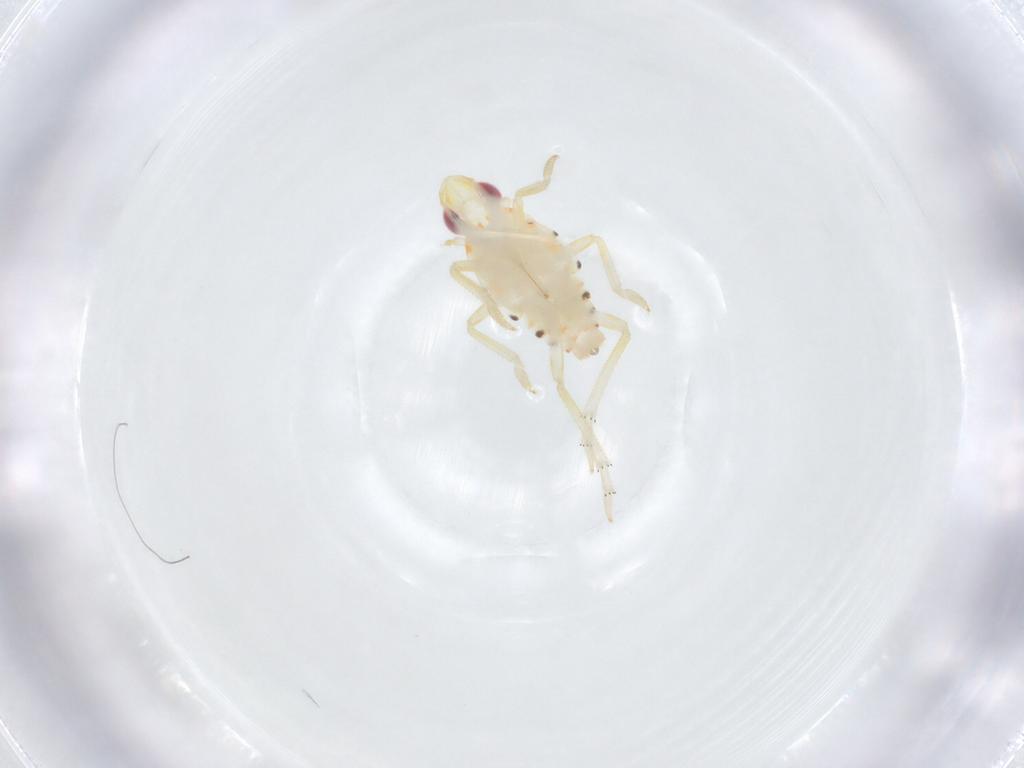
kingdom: Animalia
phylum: Arthropoda
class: Insecta
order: Hemiptera
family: Tropiduchidae
